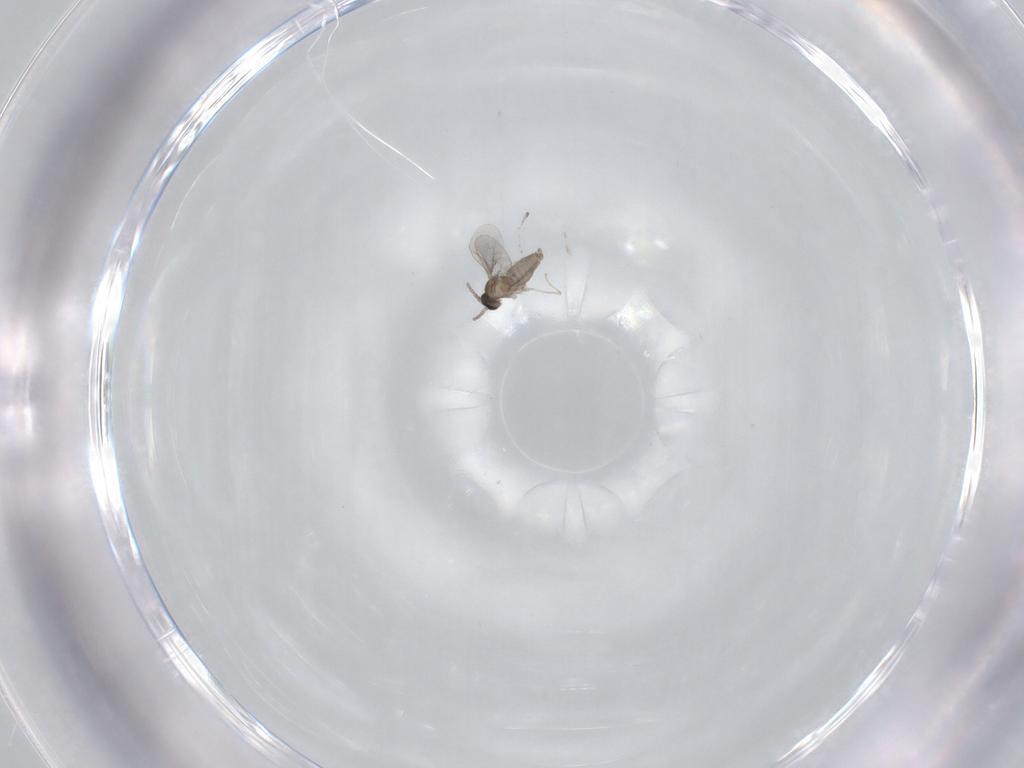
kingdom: Animalia
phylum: Arthropoda
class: Insecta
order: Diptera
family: Cecidomyiidae
